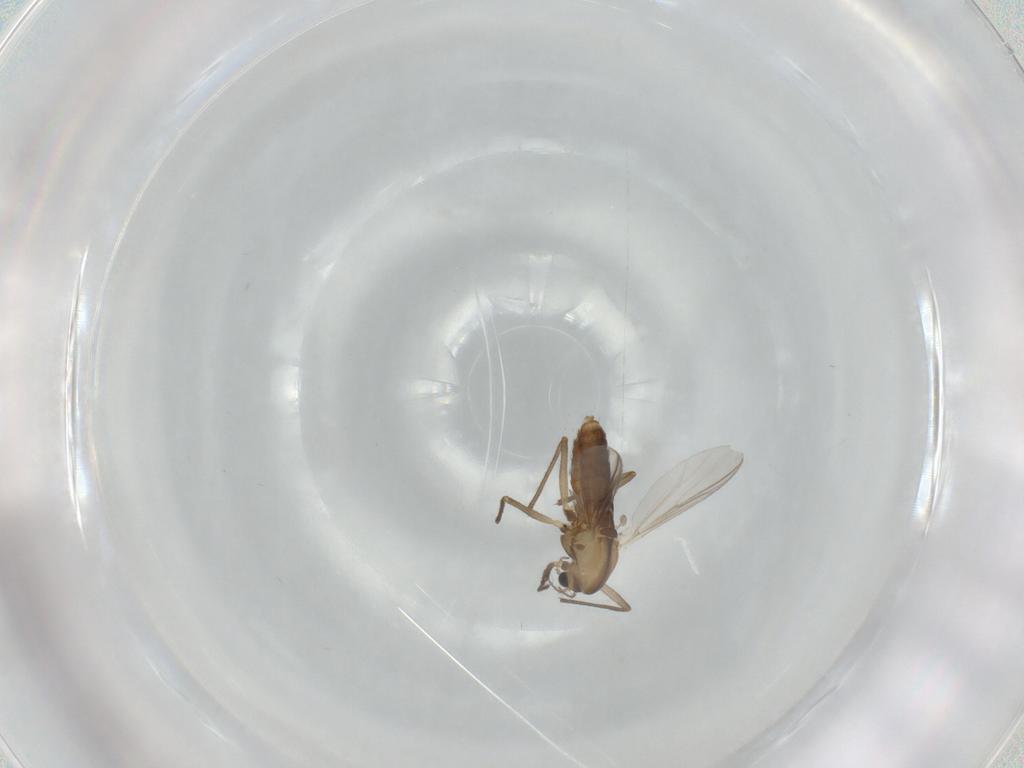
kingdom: Animalia
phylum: Arthropoda
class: Insecta
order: Diptera
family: Chironomidae
